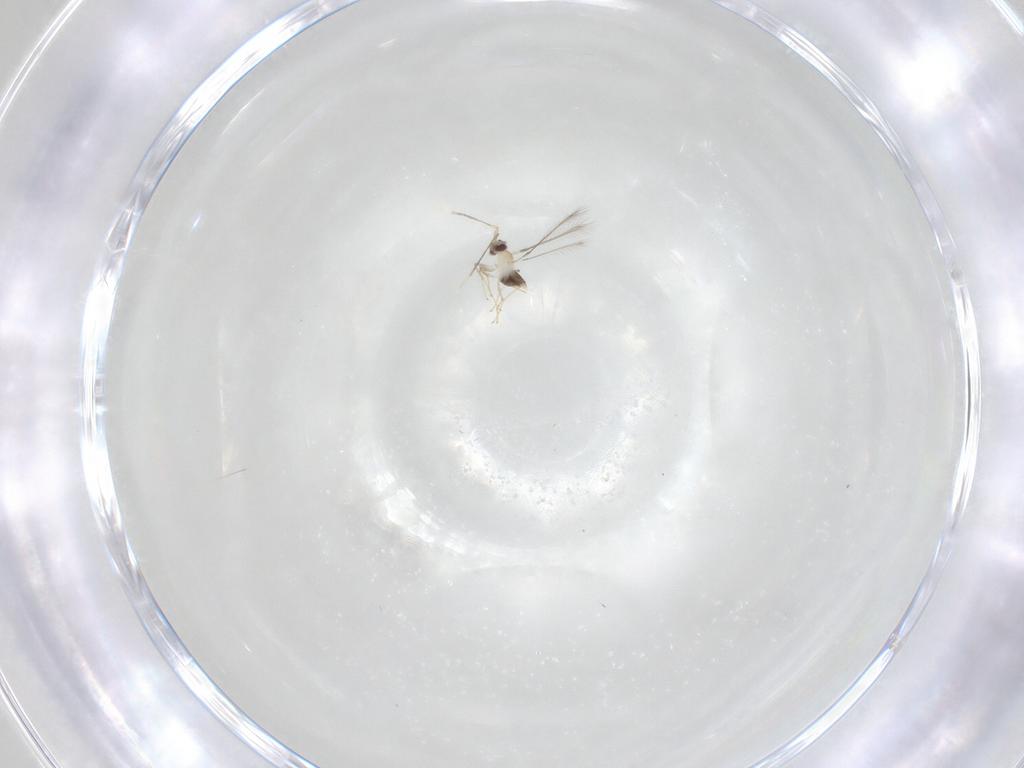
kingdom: Animalia
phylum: Arthropoda
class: Insecta
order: Hymenoptera
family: Mymaridae
